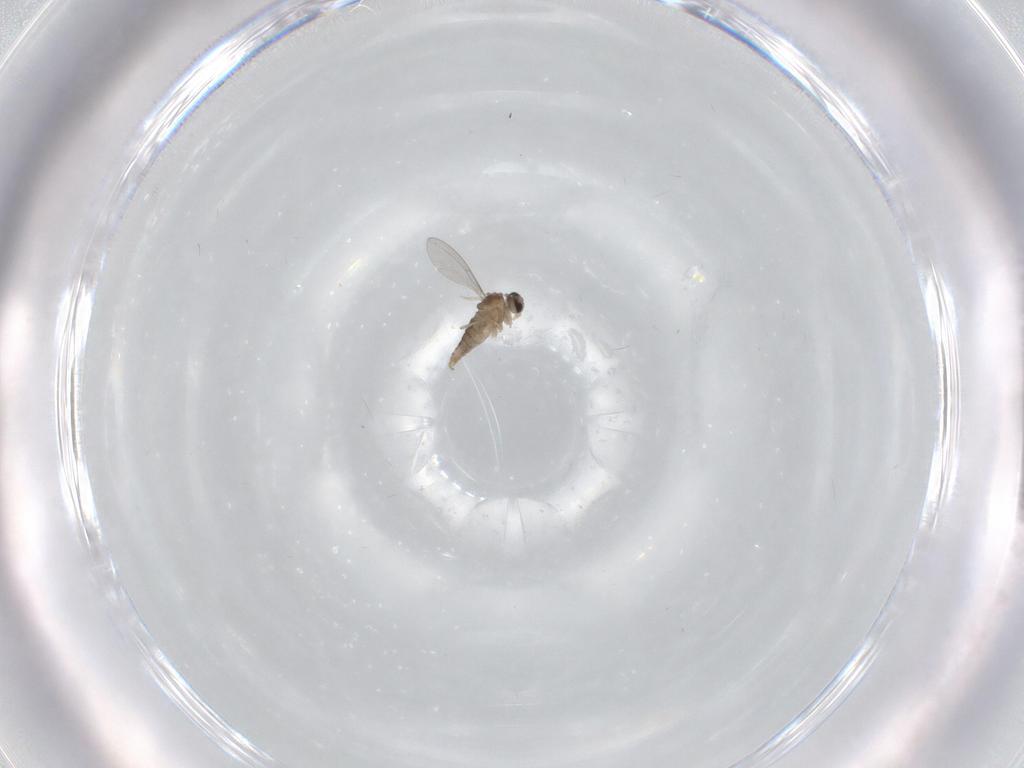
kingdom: Animalia
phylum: Arthropoda
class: Insecta
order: Diptera
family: Cecidomyiidae
